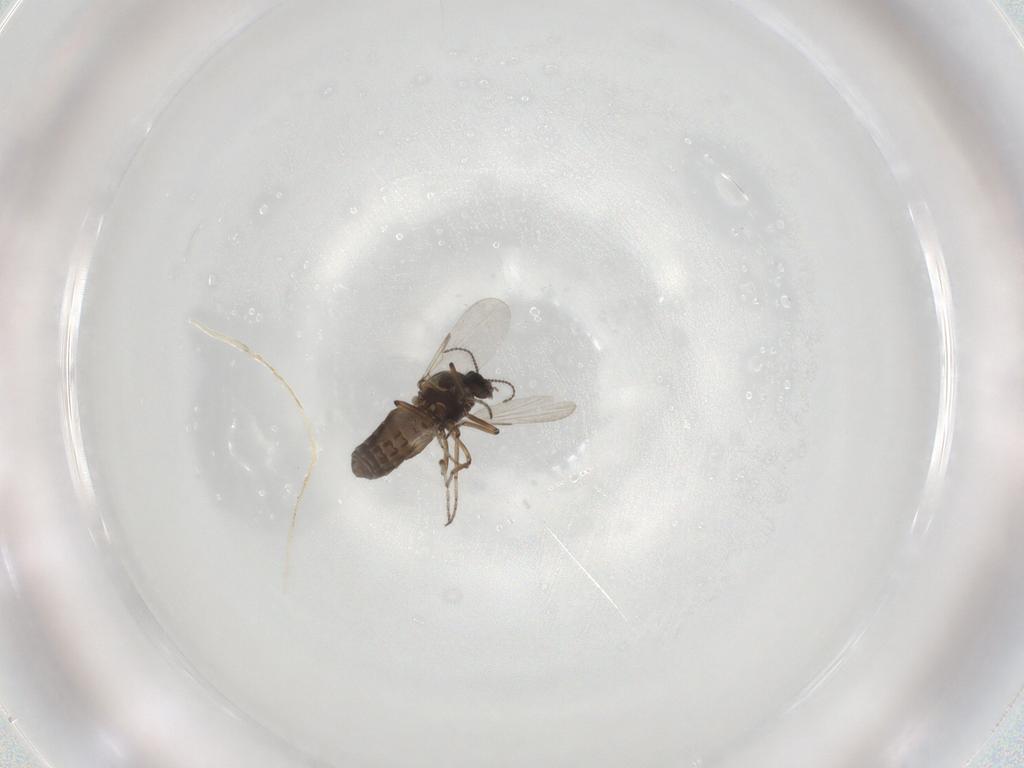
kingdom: Animalia
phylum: Arthropoda
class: Insecta
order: Diptera
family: Ceratopogonidae
